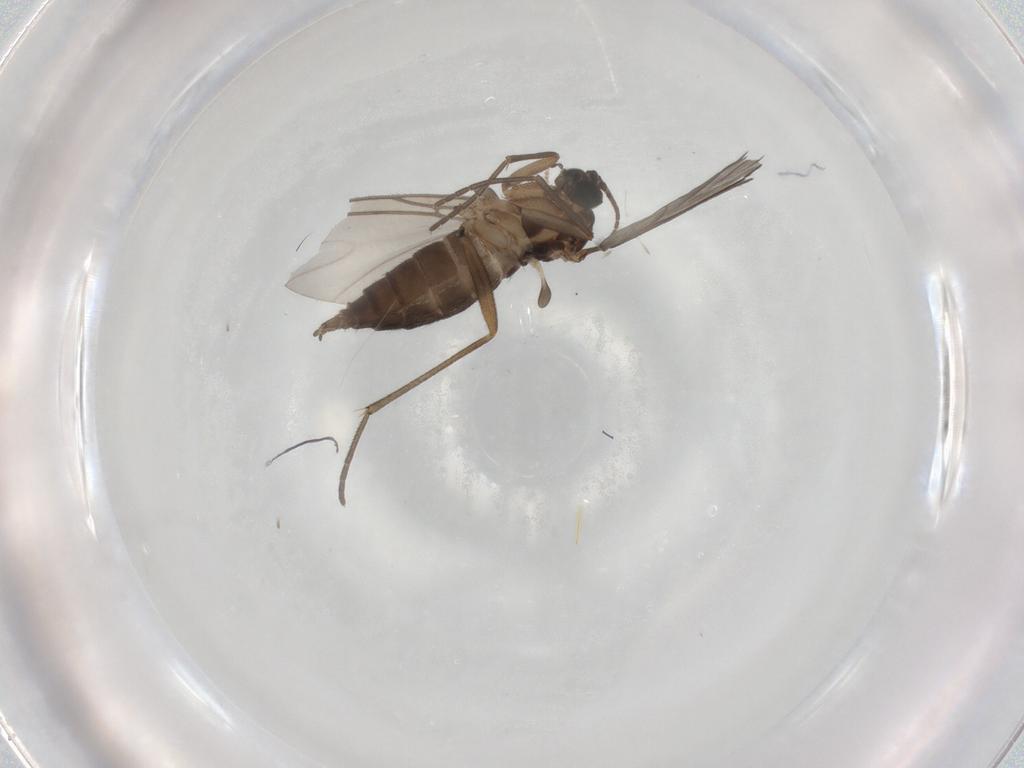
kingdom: Animalia
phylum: Arthropoda
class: Insecta
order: Diptera
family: Sciaridae
